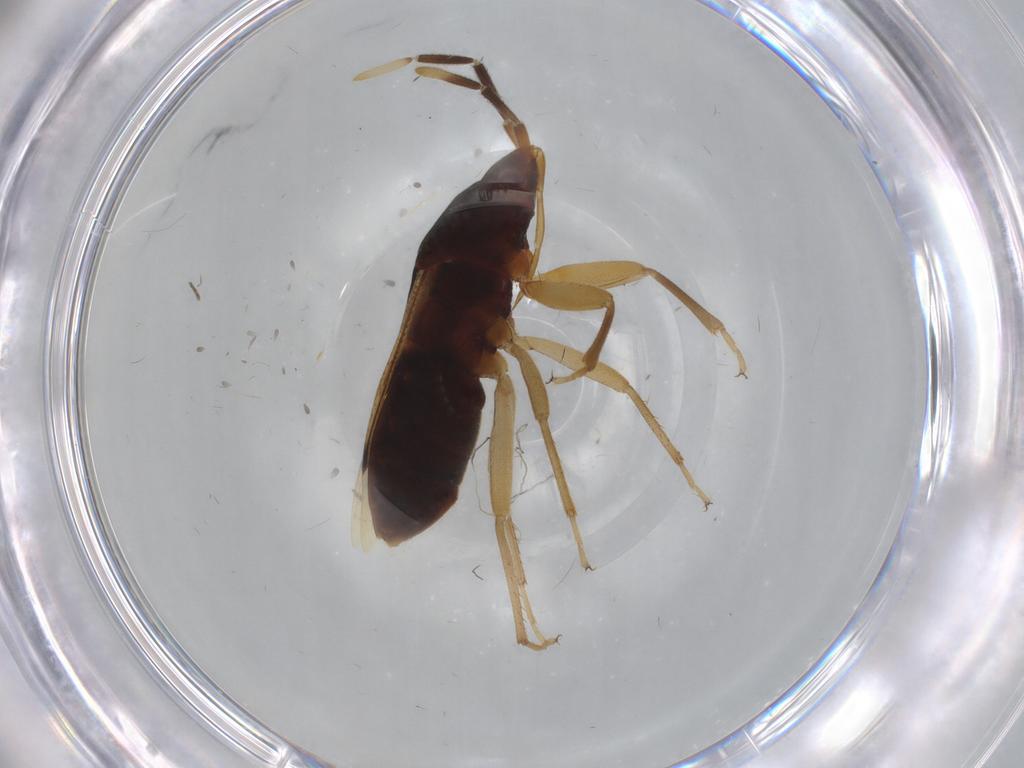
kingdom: Animalia
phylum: Arthropoda
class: Insecta
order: Hemiptera
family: Rhyparochromidae
